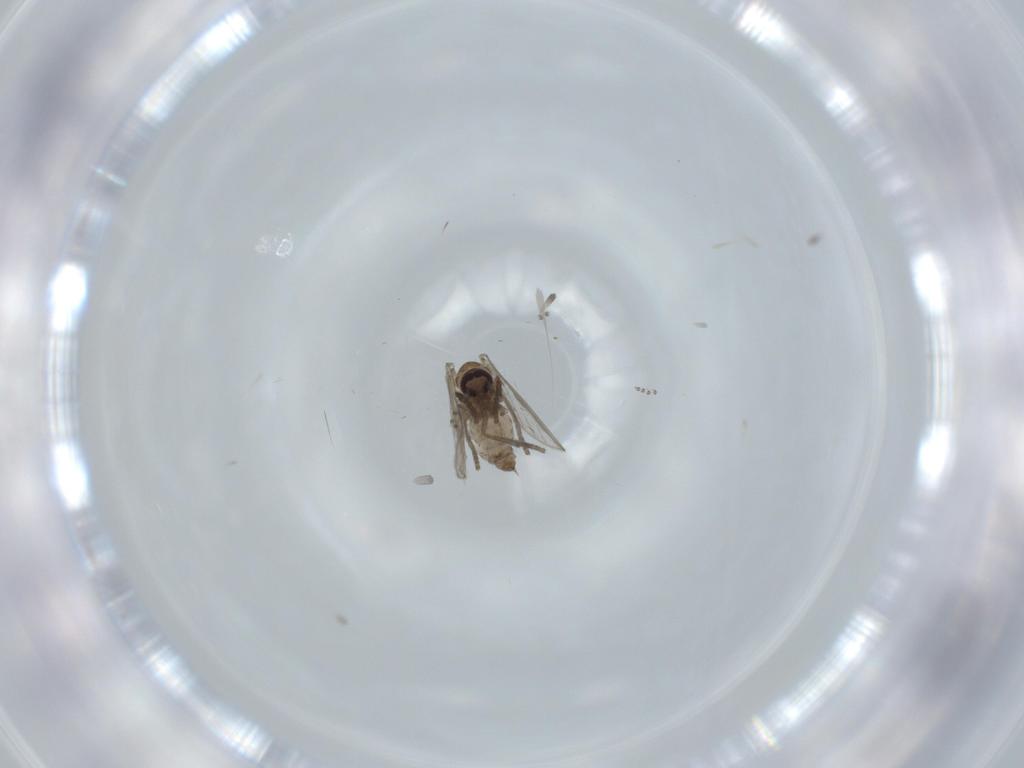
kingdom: Animalia
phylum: Arthropoda
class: Insecta
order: Diptera
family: Psychodidae
